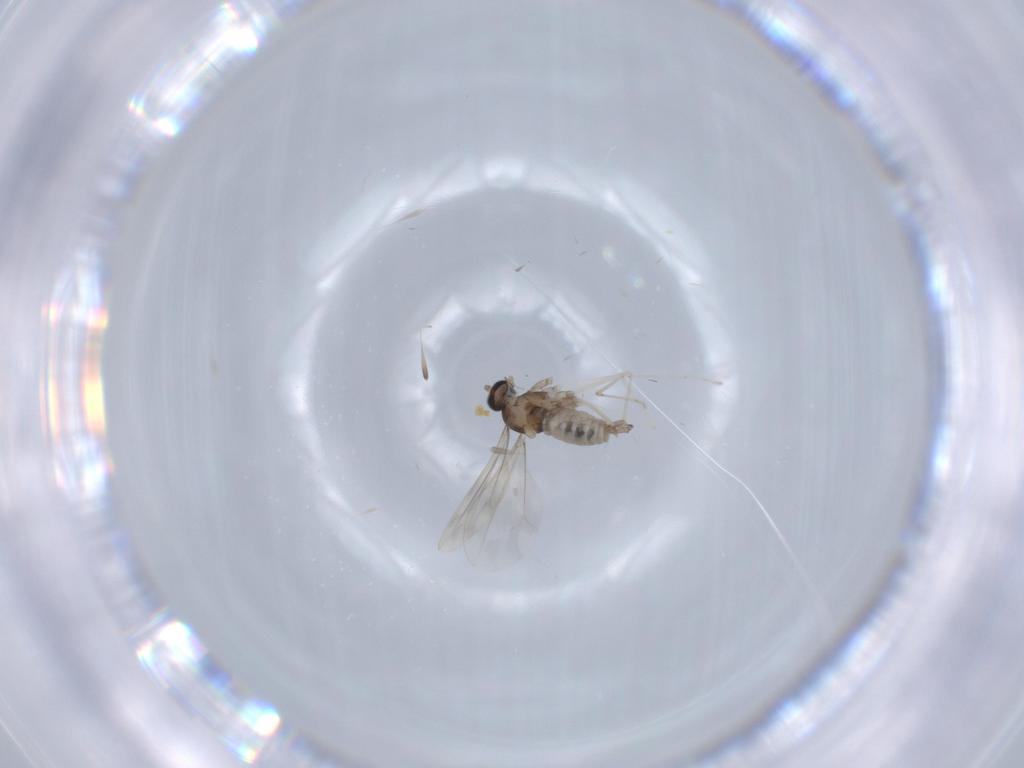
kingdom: Animalia
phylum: Arthropoda
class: Insecta
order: Diptera
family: Cecidomyiidae
